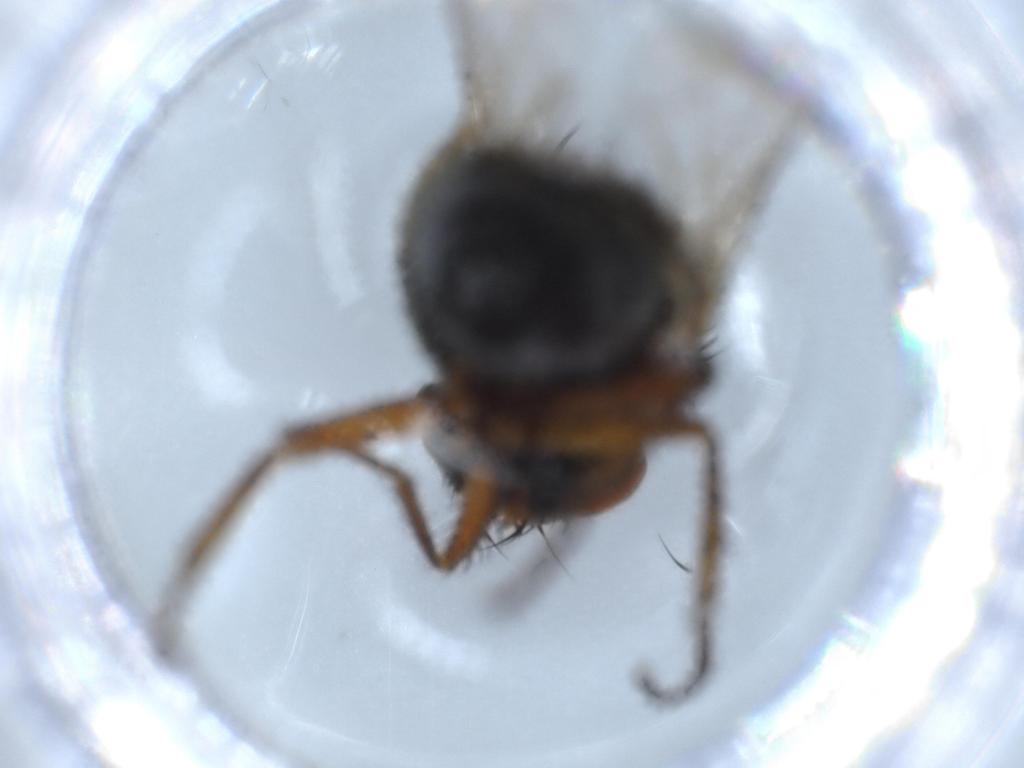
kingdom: Animalia
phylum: Arthropoda
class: Insecta
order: Diptera
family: Sarcophagidae
